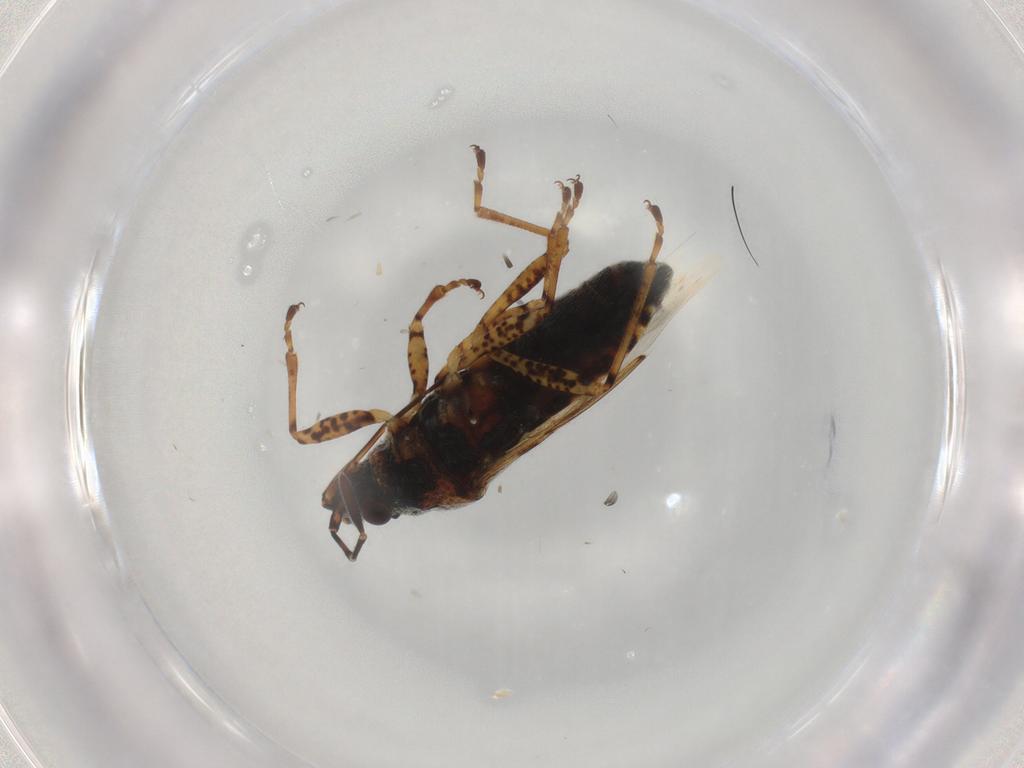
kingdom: Animalia
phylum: Arthropoda
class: Insecta
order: Hemiptera
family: Lygaeidae
